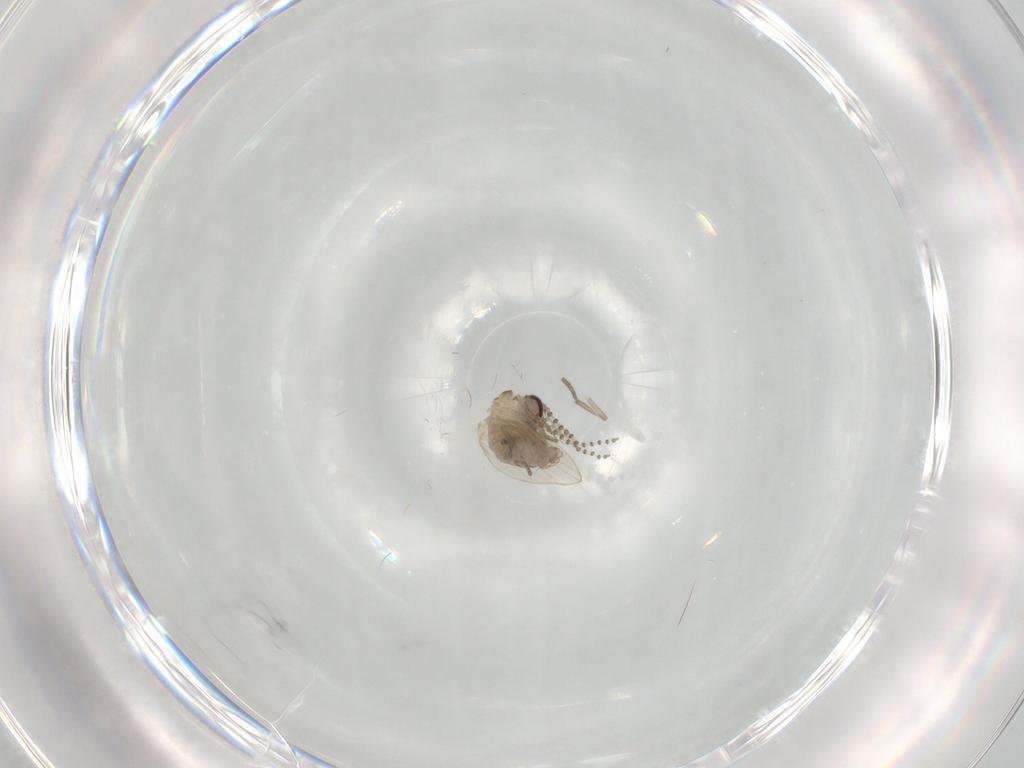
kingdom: Animalia
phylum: Arthropoda
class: Insecta
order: Diptera
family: Psychodidae
